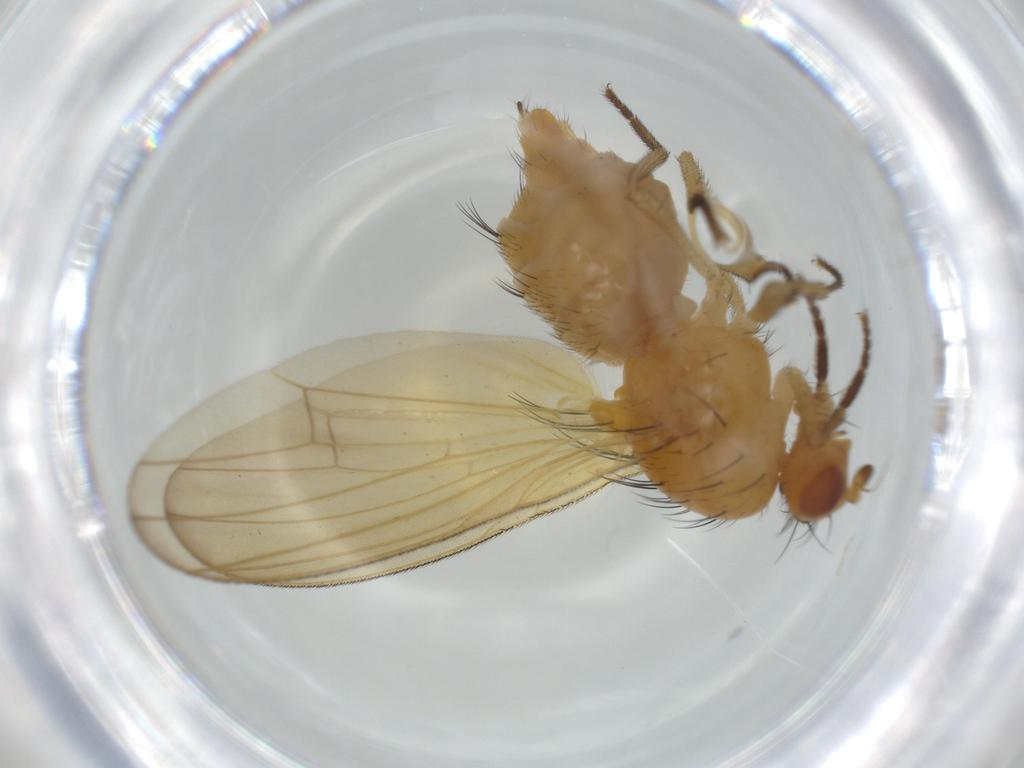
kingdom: Animalia
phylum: Arthropoda
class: Insecta
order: Diptera
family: Lauxaniidae
